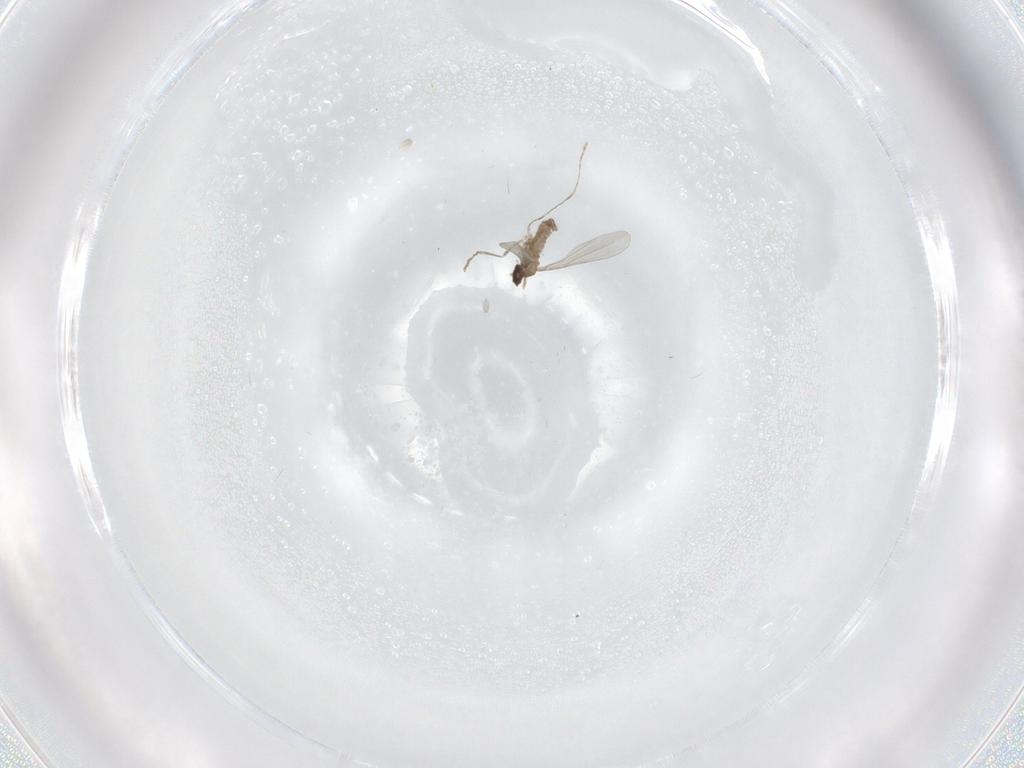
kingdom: Animalia
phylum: Arthropoda
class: Insecta
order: Diptera
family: Cecidomyiidae
